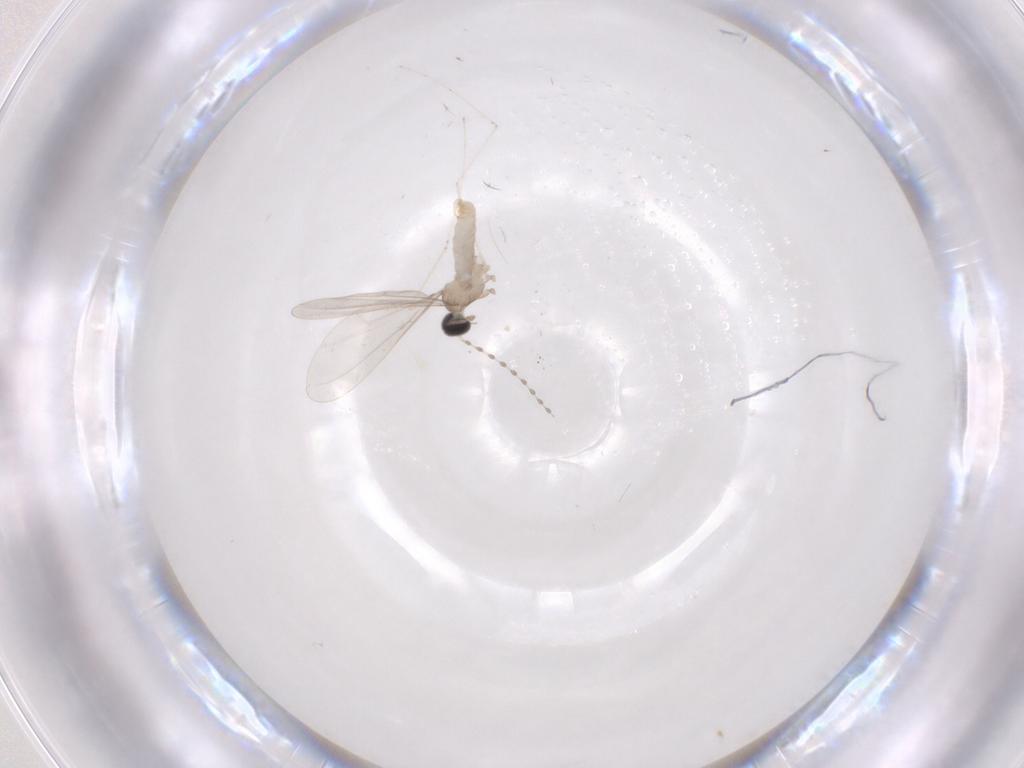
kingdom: Animalia
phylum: Arthropoda
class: Insecta
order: Diptera
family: Cecidomyiidae
